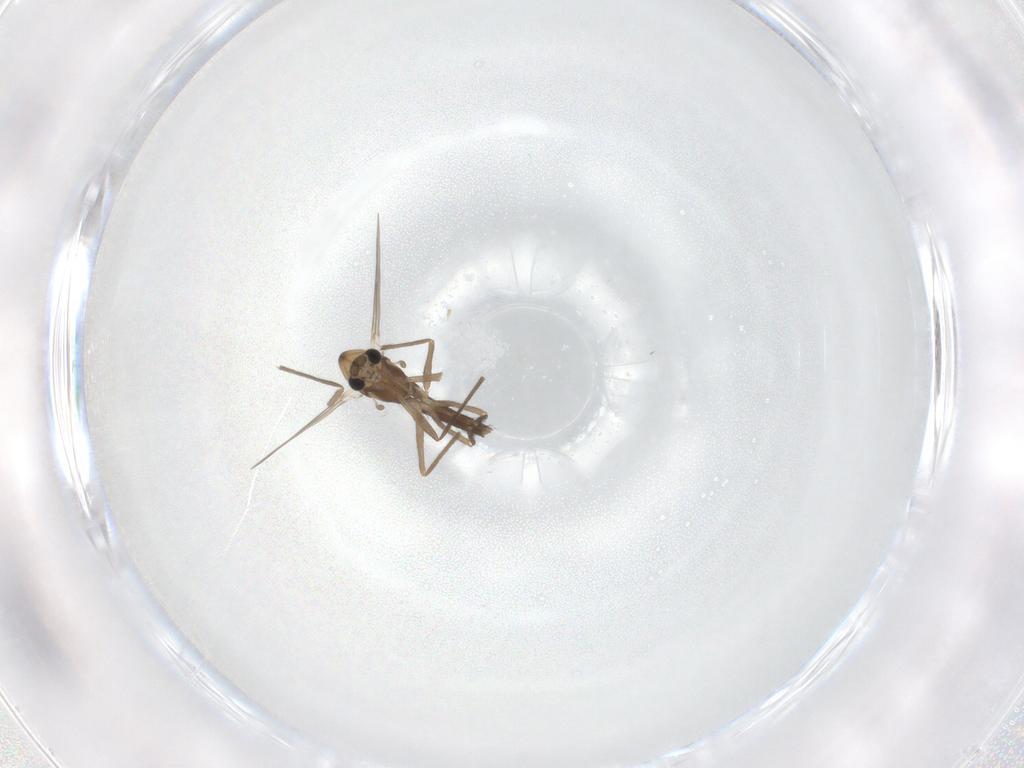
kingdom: Animalia
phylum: Arthropoda
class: Insecta
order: Diptera
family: Chironomidae
